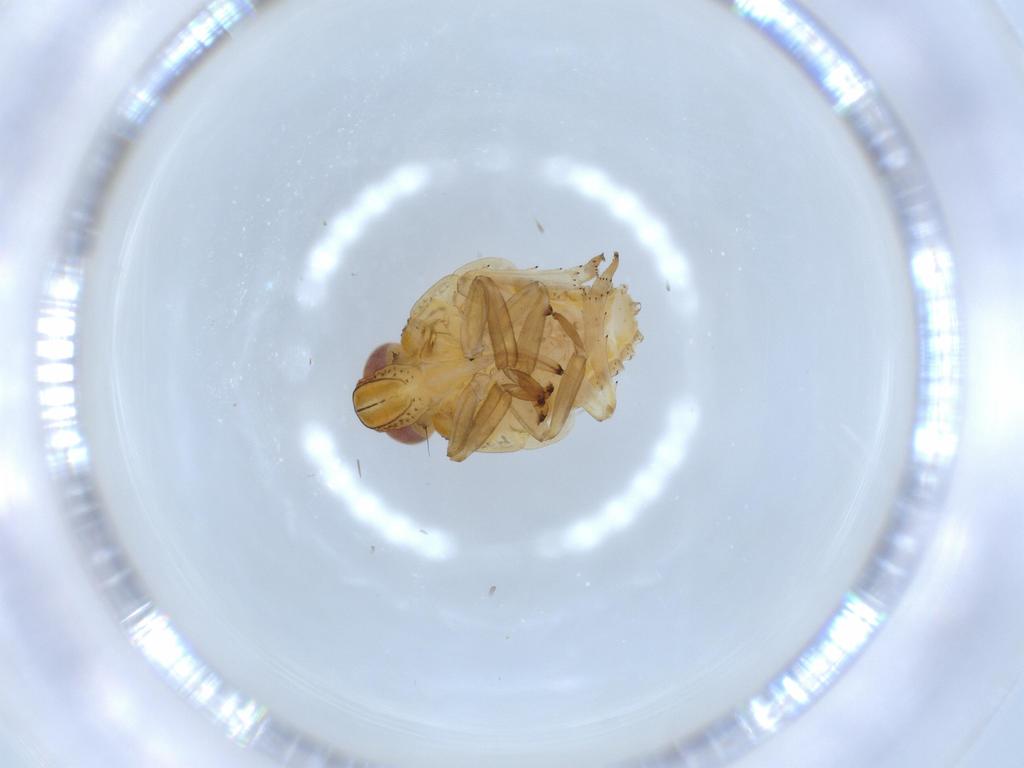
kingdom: Animalia
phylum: Arthropoda
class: Insecta
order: Hemiptera
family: Issidae
